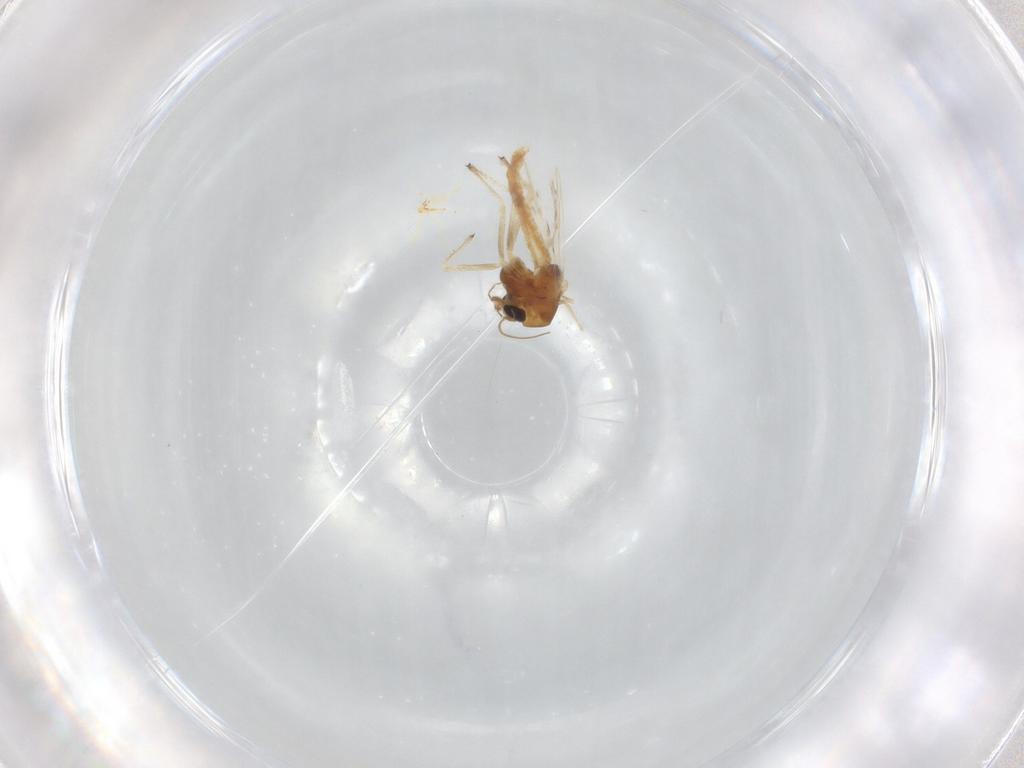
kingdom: Animalia
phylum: Arthropoda
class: Insecta
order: Diptera
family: Chironomidae
